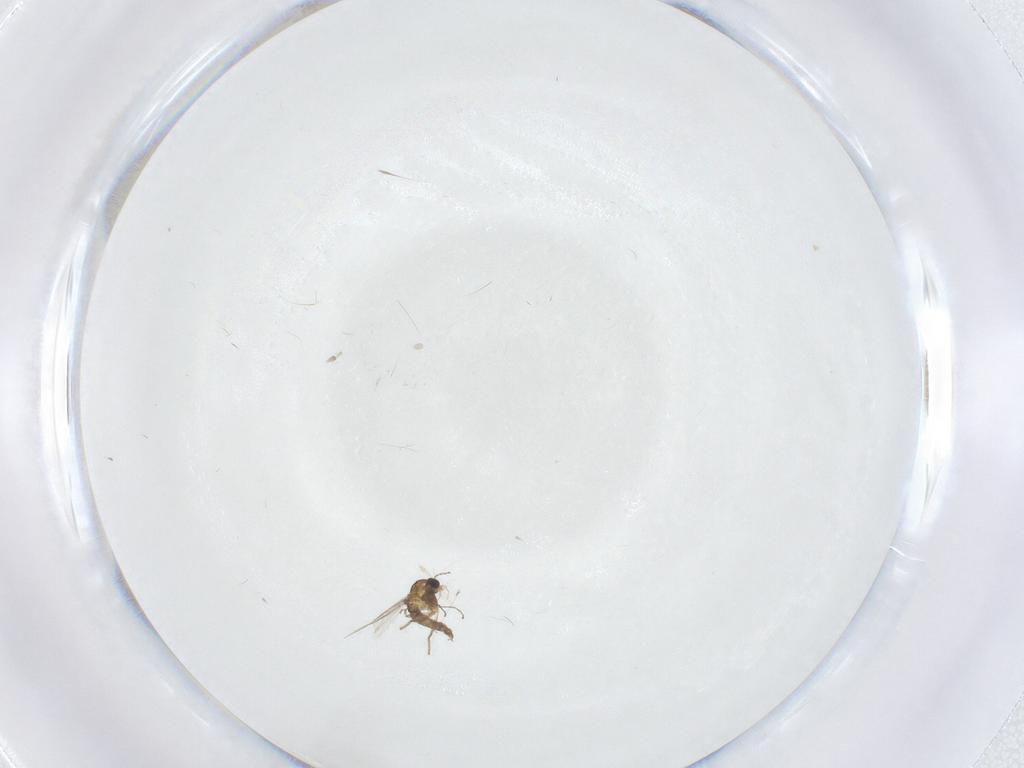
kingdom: Animalia
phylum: Arthropoda
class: Insecta
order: Diptera
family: Chironomidae
